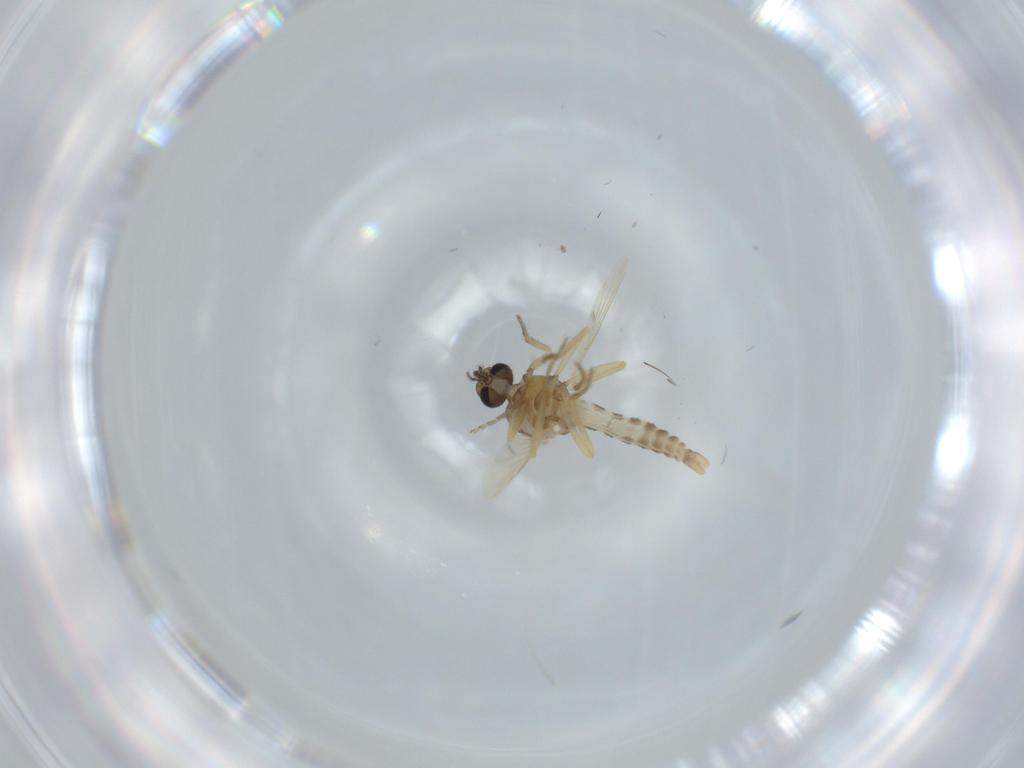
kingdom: Animalia
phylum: Arthropoda
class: Insecta
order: Diptera
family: Ceratopogonidae
